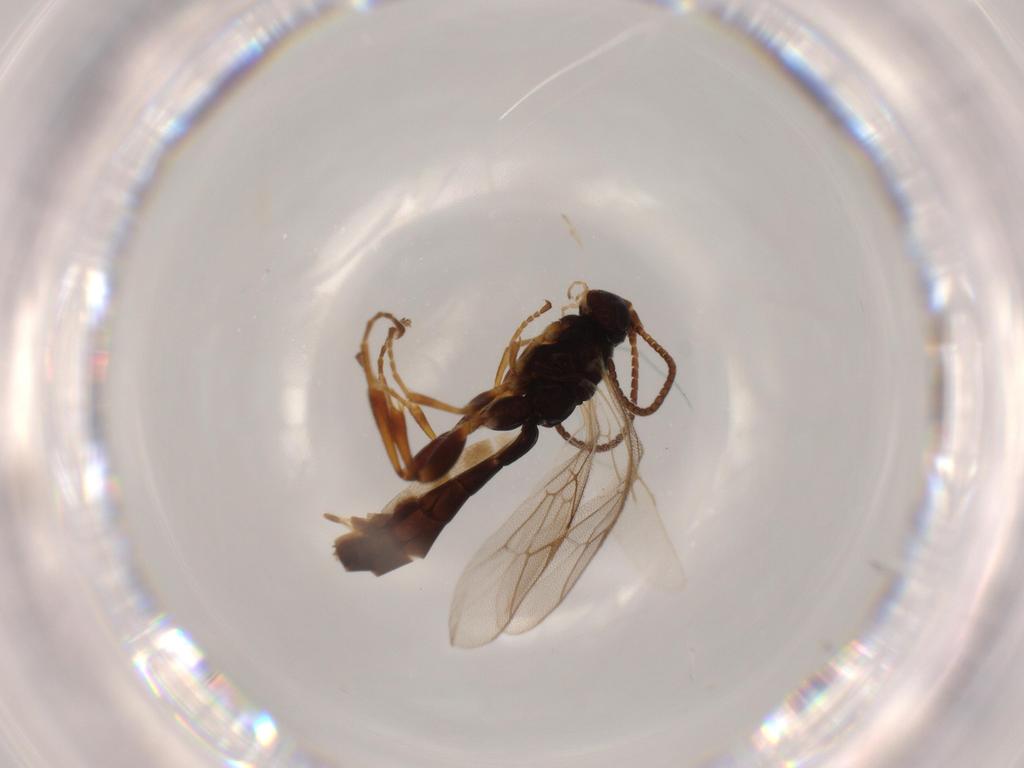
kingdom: Animalia
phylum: Arthropoda
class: Insecta
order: Hymenoptera
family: Ichneumonidae
